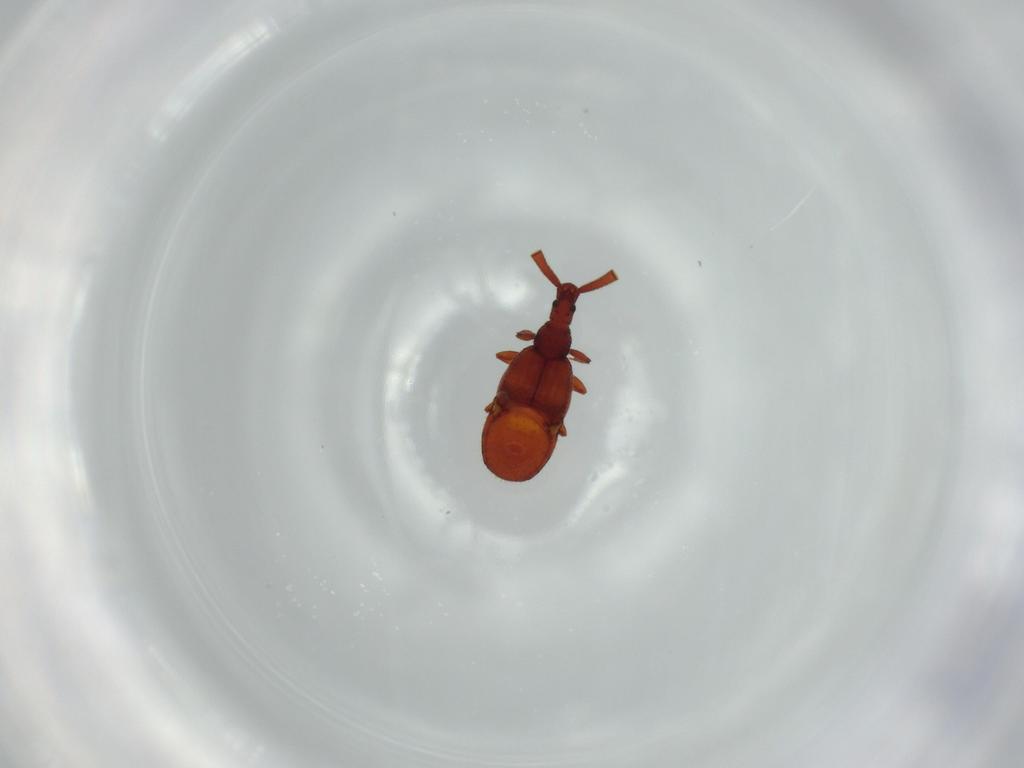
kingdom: Animalia
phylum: Arthropoda
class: Insecta
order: Coleoptera
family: Staphylinidae
